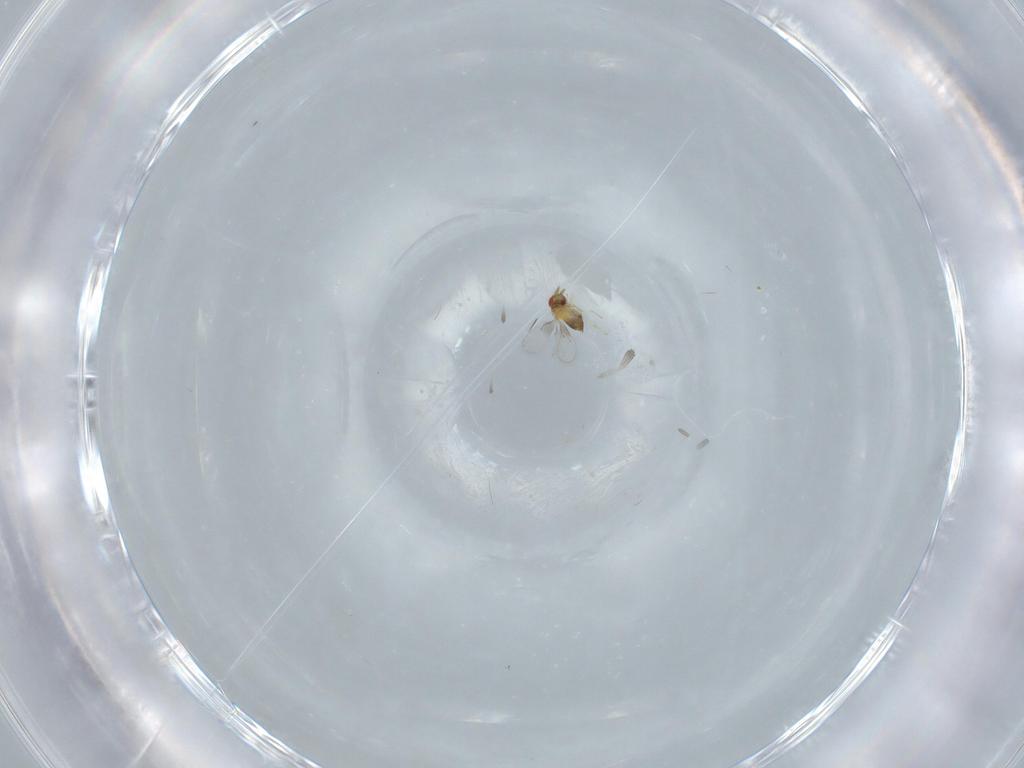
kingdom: Animalia
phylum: Arthropoda
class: Insecta
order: Hymenoptera
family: Trichogrammatidae
